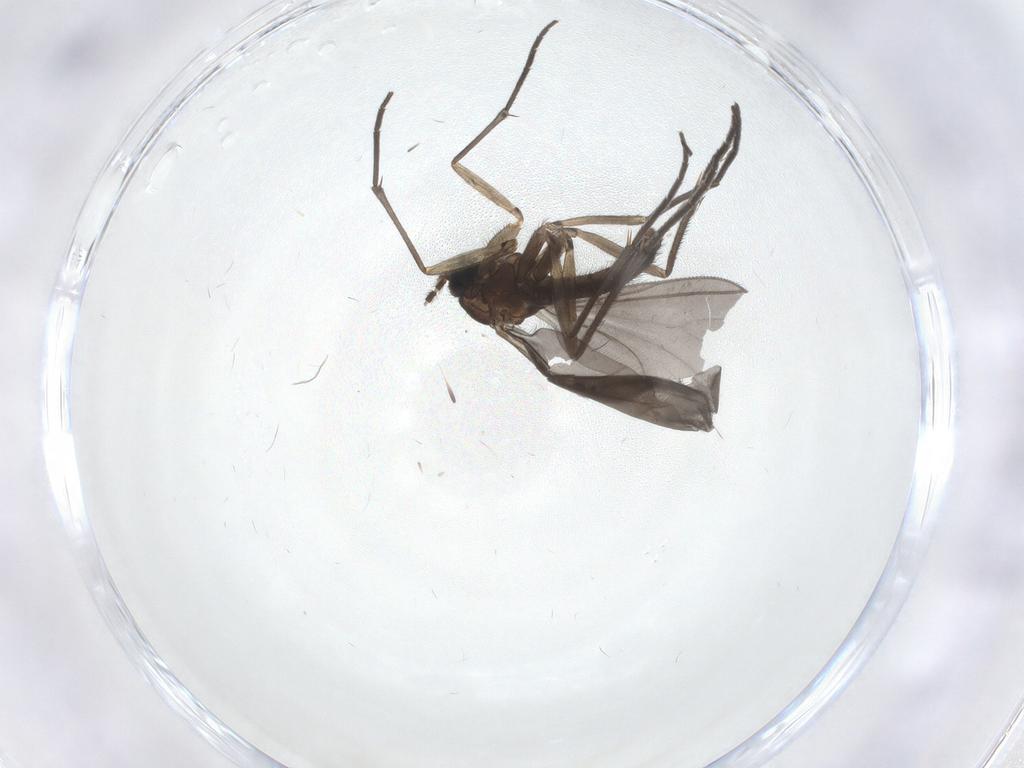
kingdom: Animalia
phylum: Arthropoda
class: Insecta
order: Diptera
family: Sciaridae
